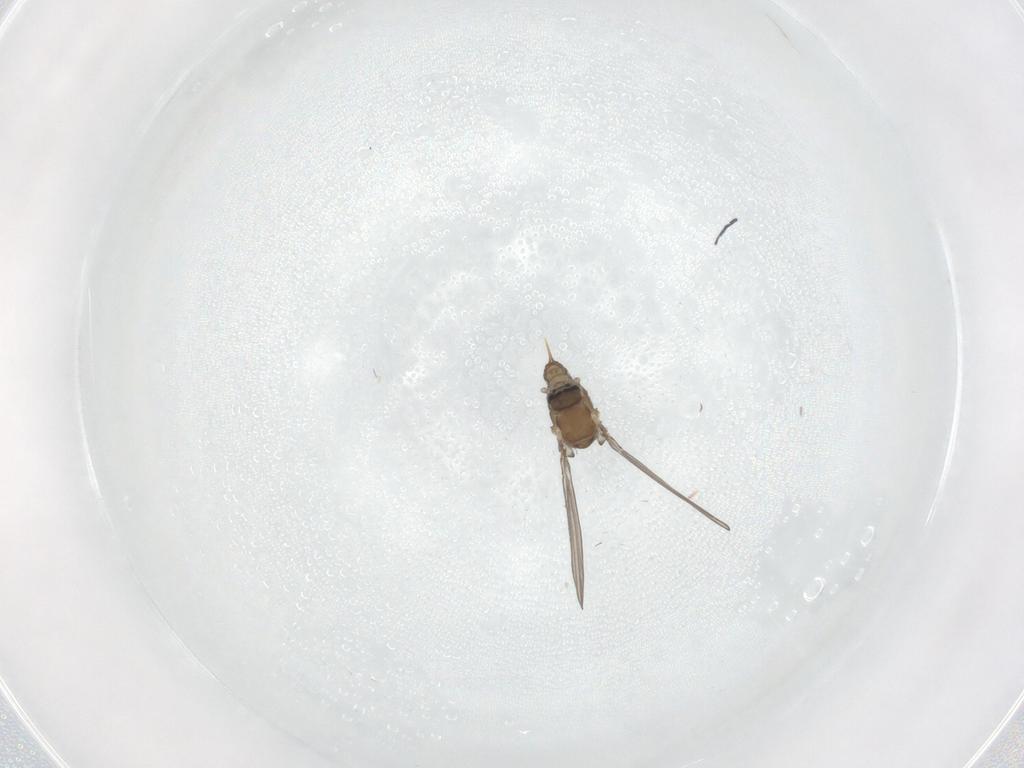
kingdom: Animalia
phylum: Arthropoda
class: Insecta
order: Diptera
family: Psychodidae
